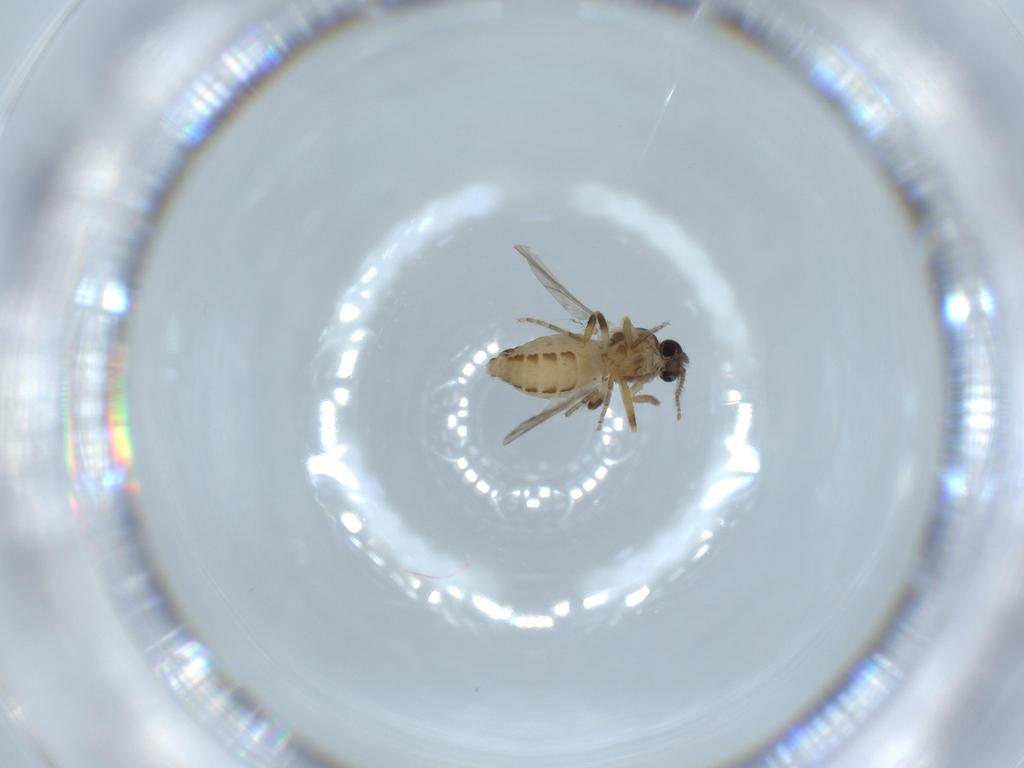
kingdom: Animalia
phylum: Arthropoda
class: Insecta
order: Diptera
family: Ceratopogonidae
